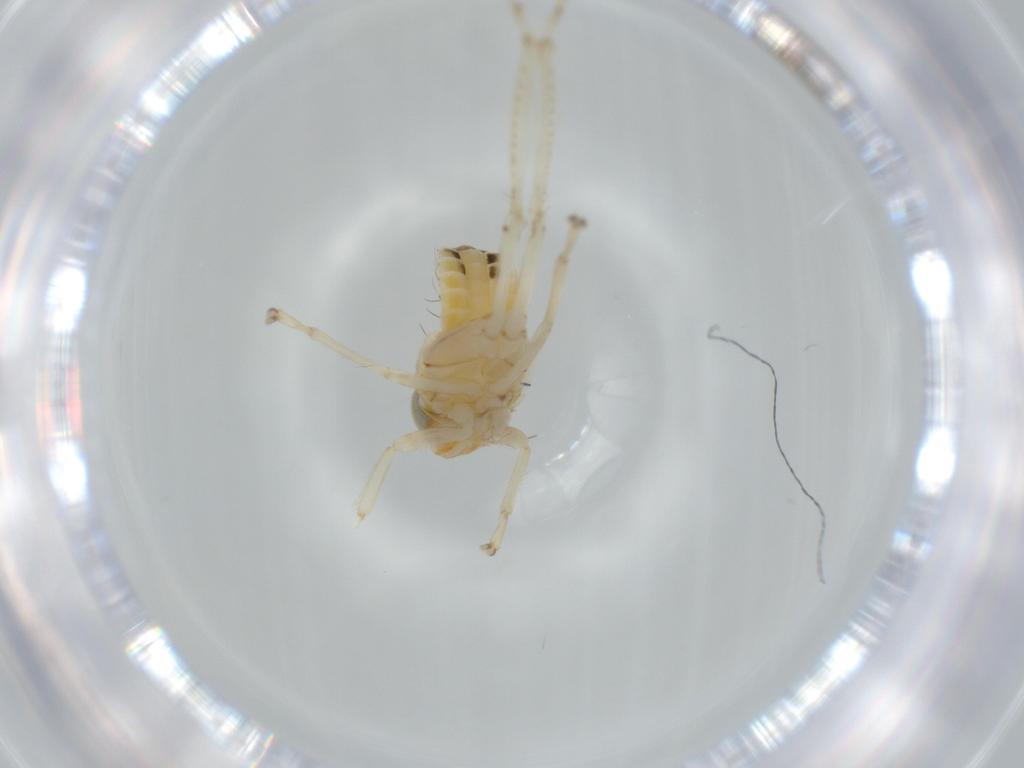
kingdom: Animalia
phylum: Arthropoda
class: Insecta
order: Hemiptera
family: Cicadellidae
